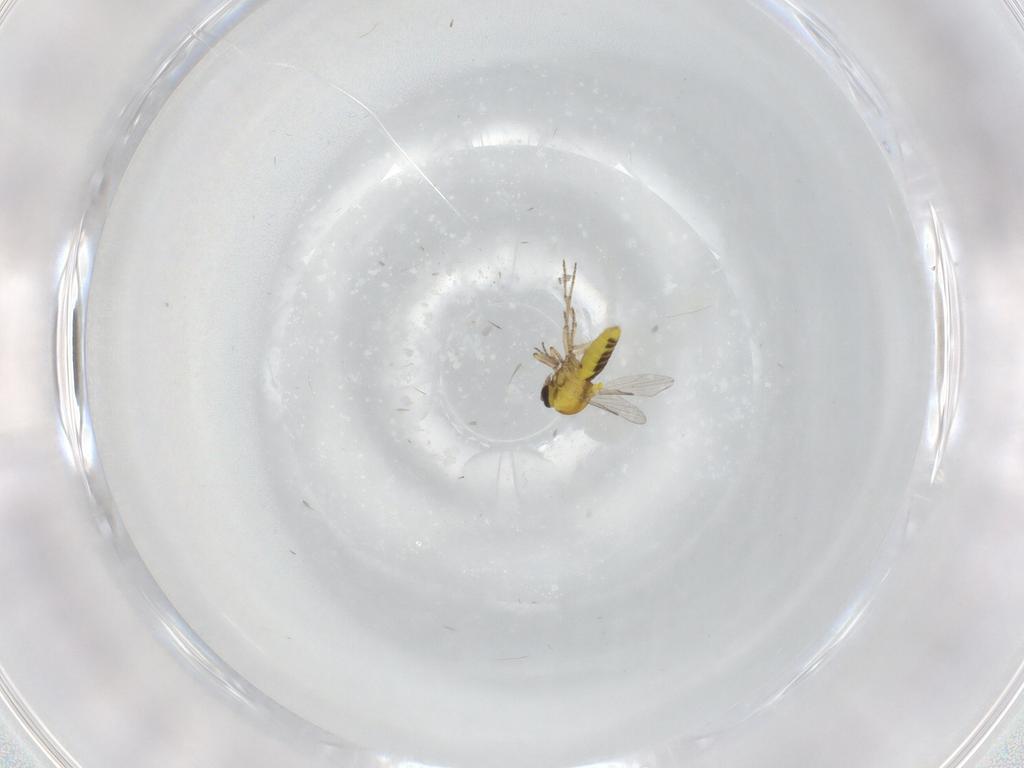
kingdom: Animalia
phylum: Arthropoda
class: Insecta
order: Diptera
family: Ceratopogonidae
